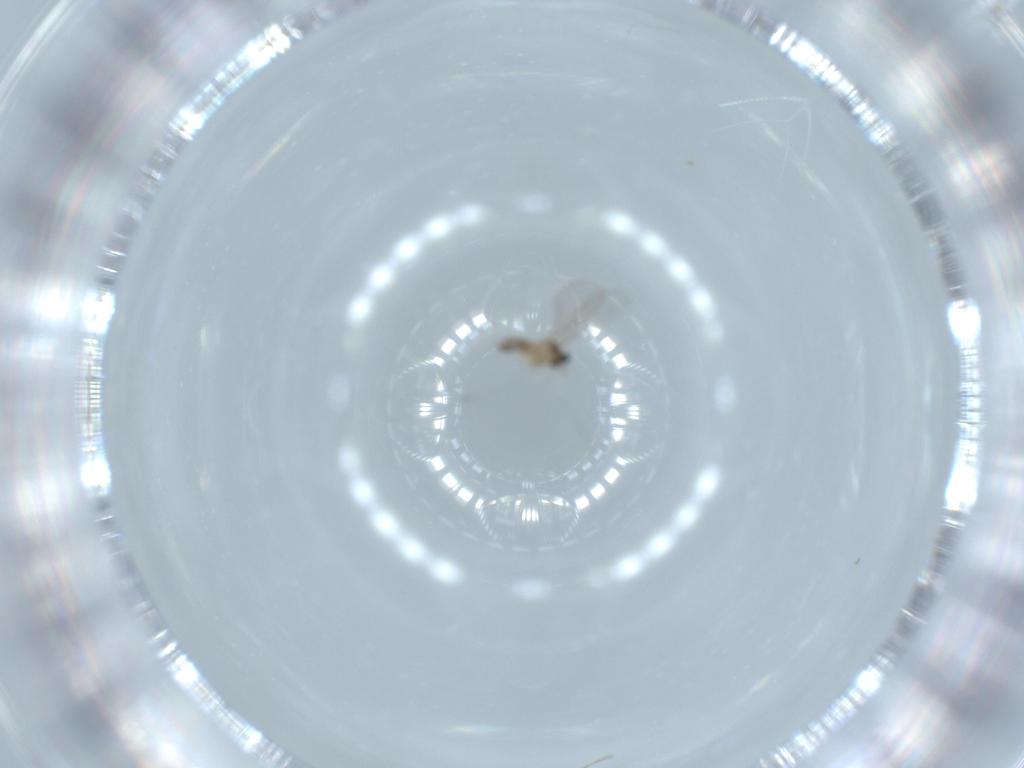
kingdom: Animalia
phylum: Arthropoda
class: Insecta
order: Diptera
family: Cecidomyiidae
